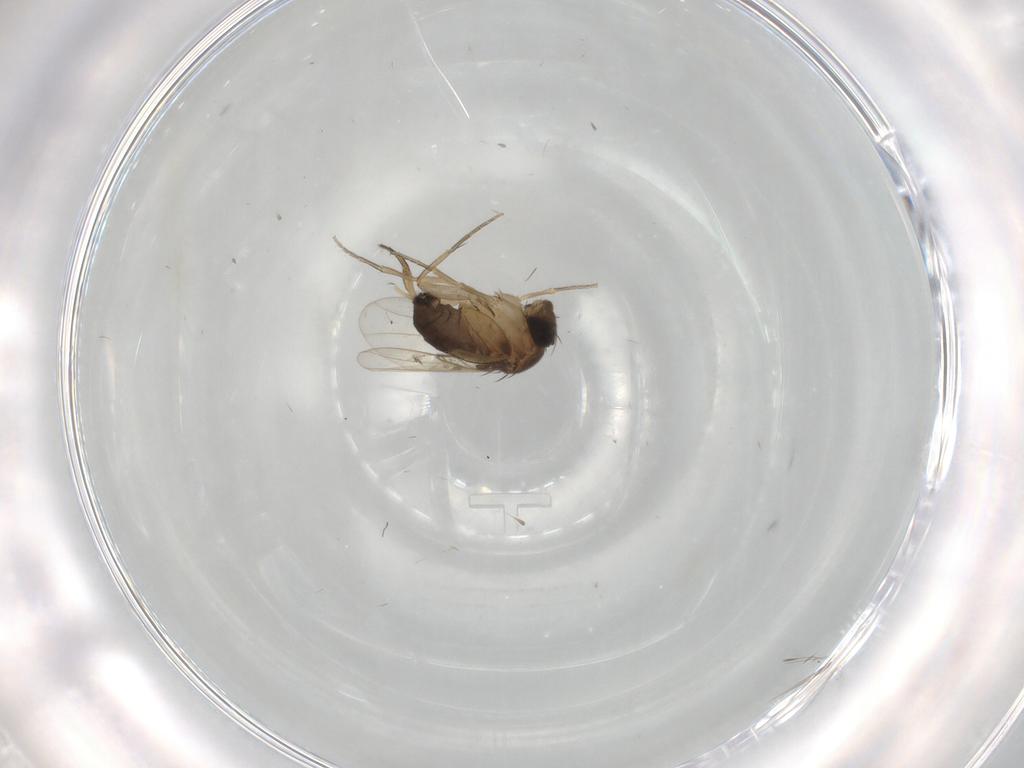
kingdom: Animalia
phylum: Arthropoda
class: Insecta
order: Diptera
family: Phoridae
